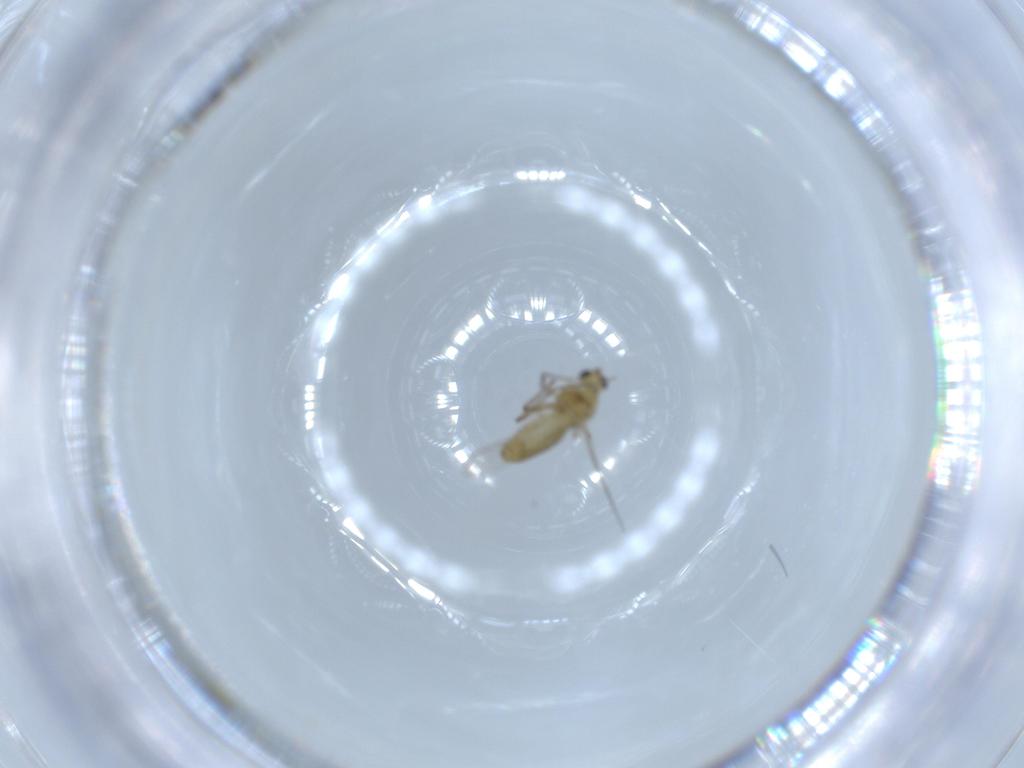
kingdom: Animalia
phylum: Arthropoda
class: Insecta
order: Diptera
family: Chironomidae
